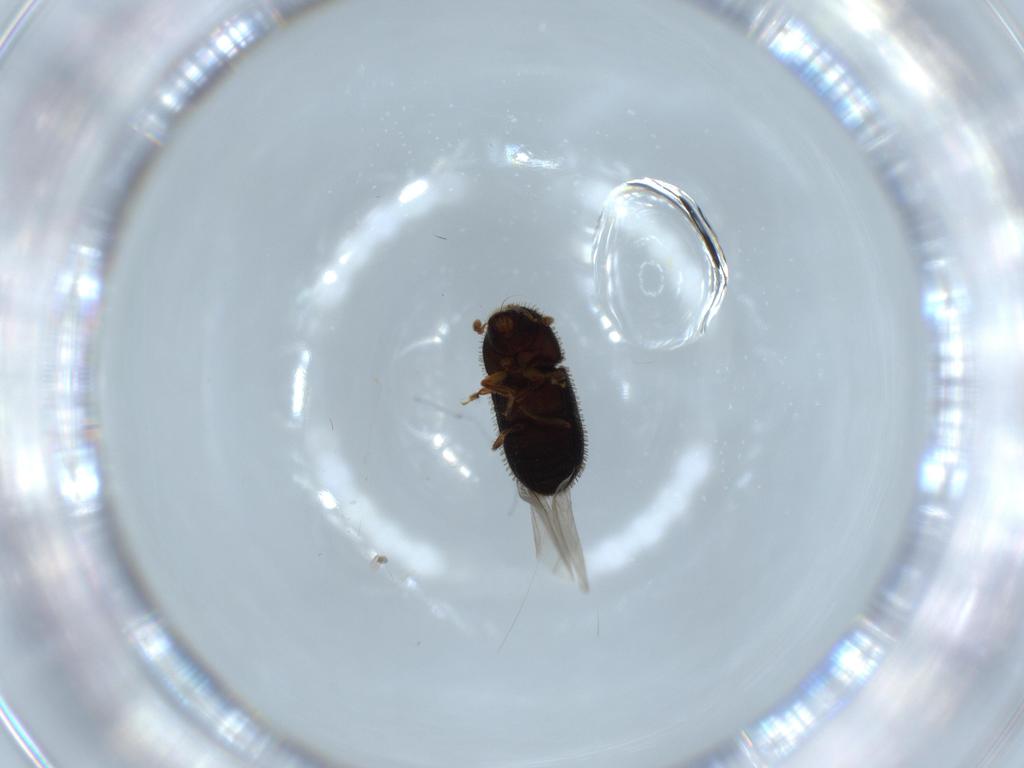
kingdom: Animalia
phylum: Arthropoda
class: Insecta
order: Coleoptera
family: Curculionidae
